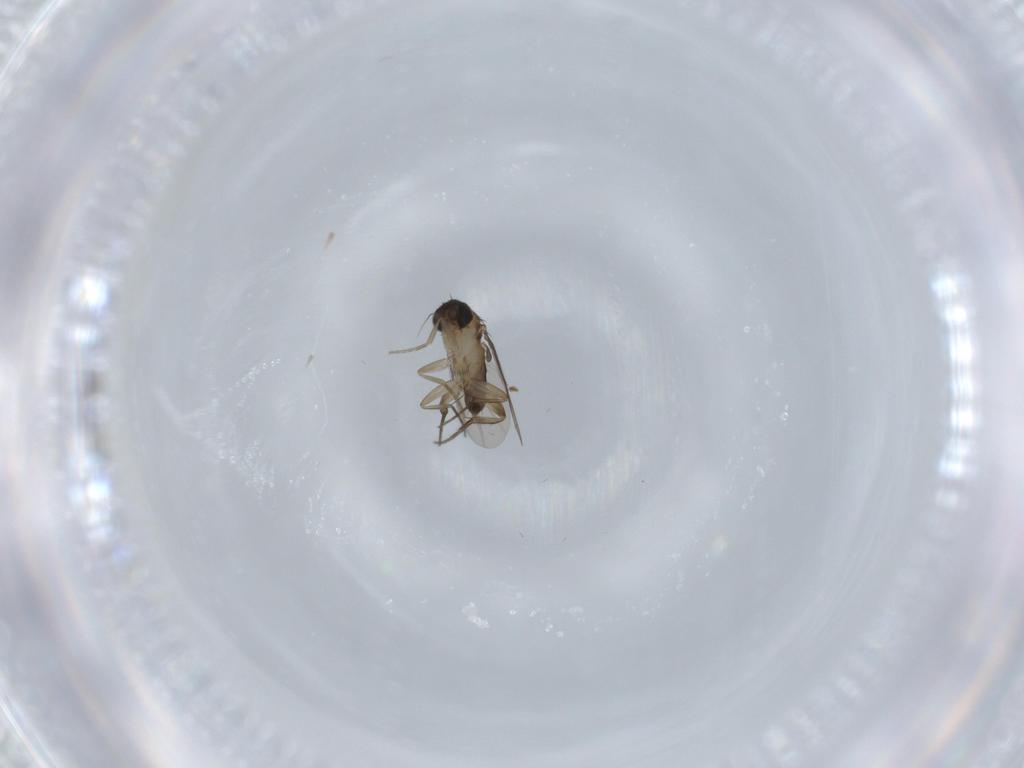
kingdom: Animalia
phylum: Arthropoda
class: Insecta
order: Diptera
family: Phoridae
